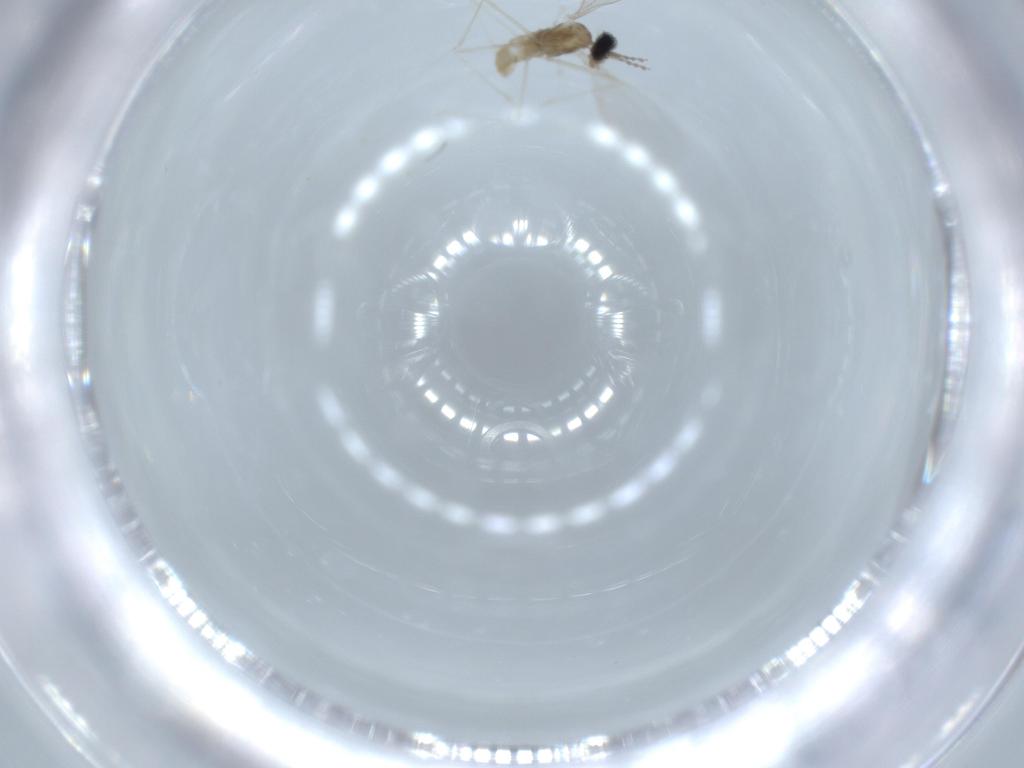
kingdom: Animalia
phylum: Arthropoda
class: Insecta
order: Diptera
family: Cecidomyiidae
